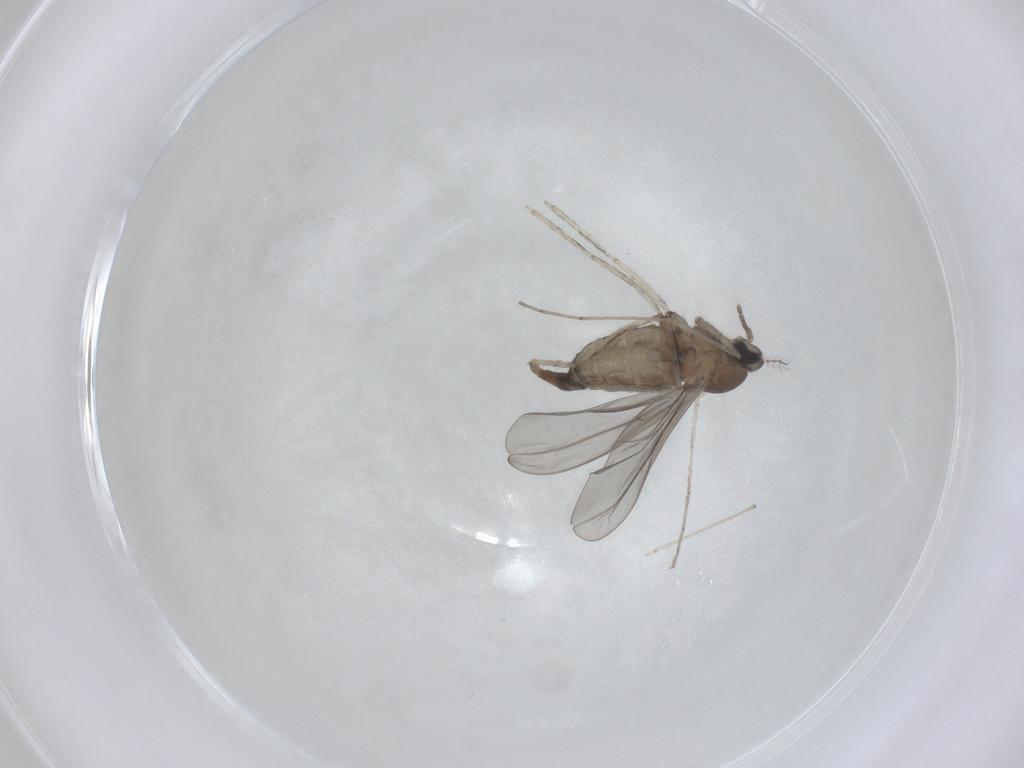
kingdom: Animalia
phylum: Arthropoda
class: Insecta
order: Diptera
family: Cecidomyiidae
